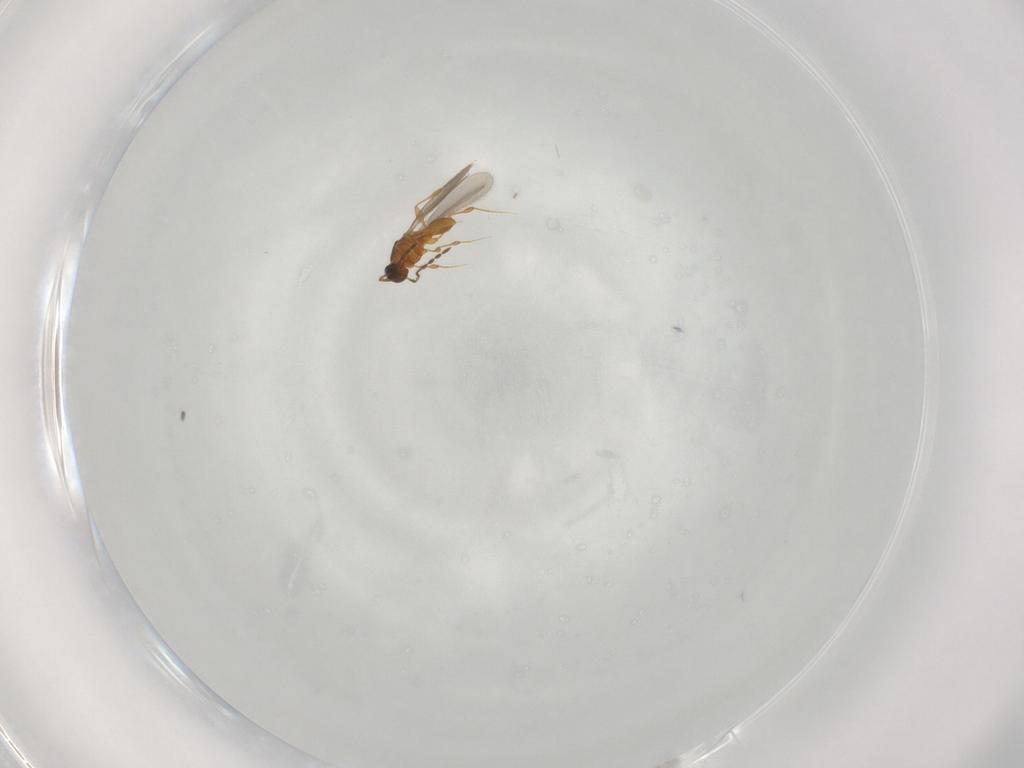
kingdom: Animalia
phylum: Arthropoda
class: Insecta
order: Hymenoptera
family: Platygastridae
